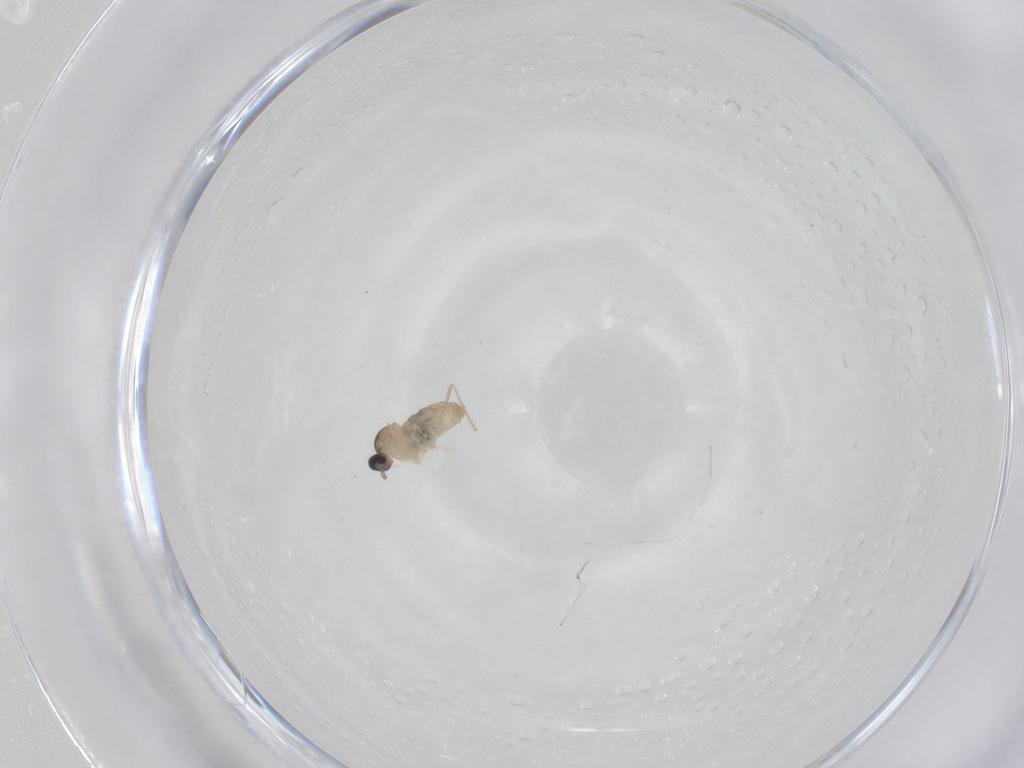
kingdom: Animalia
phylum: Arthropoda
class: Insecta
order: Diptera
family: Cecidomyiidae
